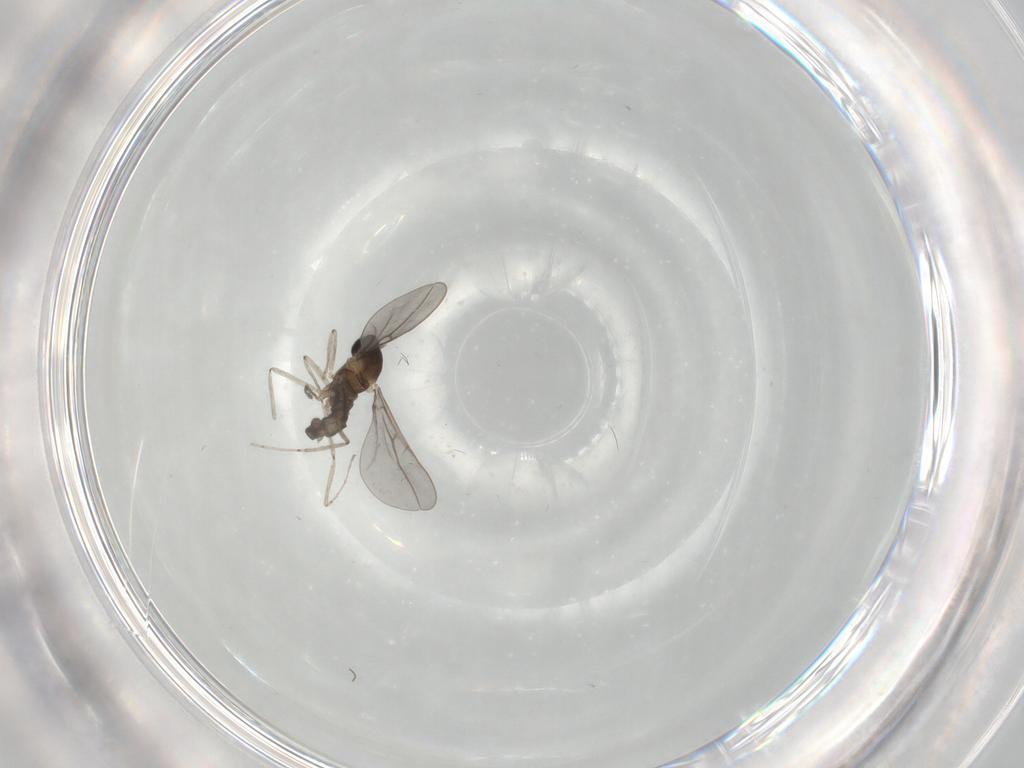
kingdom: Animalia
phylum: Arthropoda
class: Insecta
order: Diptera
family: Cecidomyiidae
